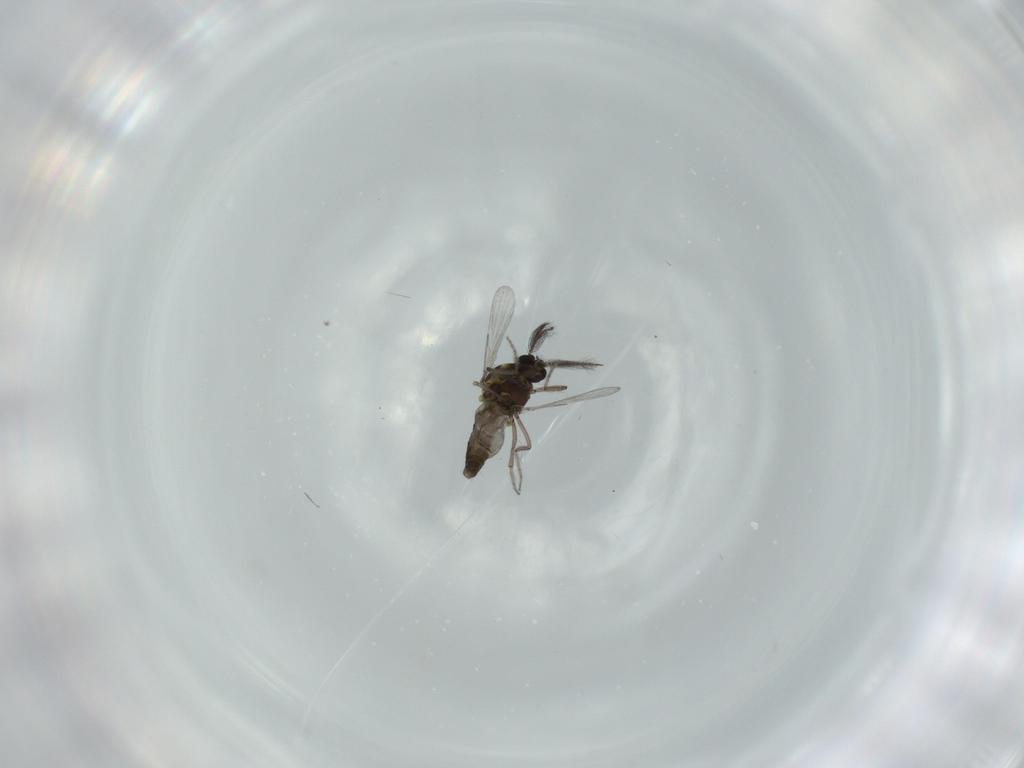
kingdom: Animalia
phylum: Arthropoda
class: Insecta
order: Diptera
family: Ceratopogonidae
